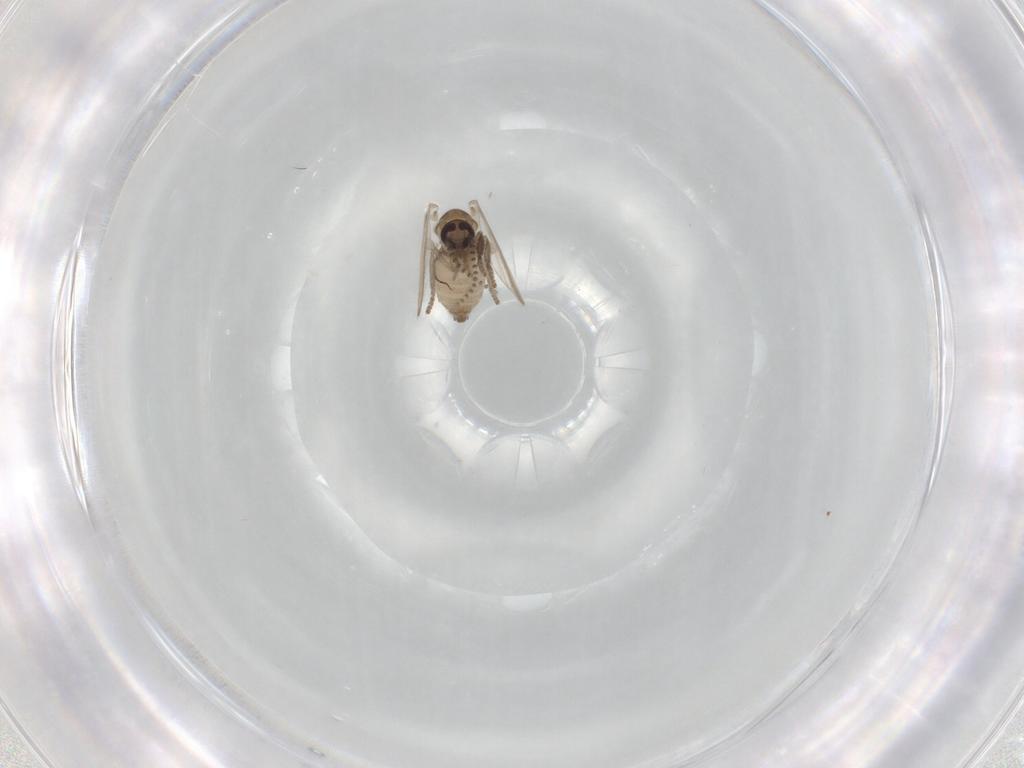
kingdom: Animalia
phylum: Arthropoda
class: Insecta
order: Diptera
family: Psychodidae
